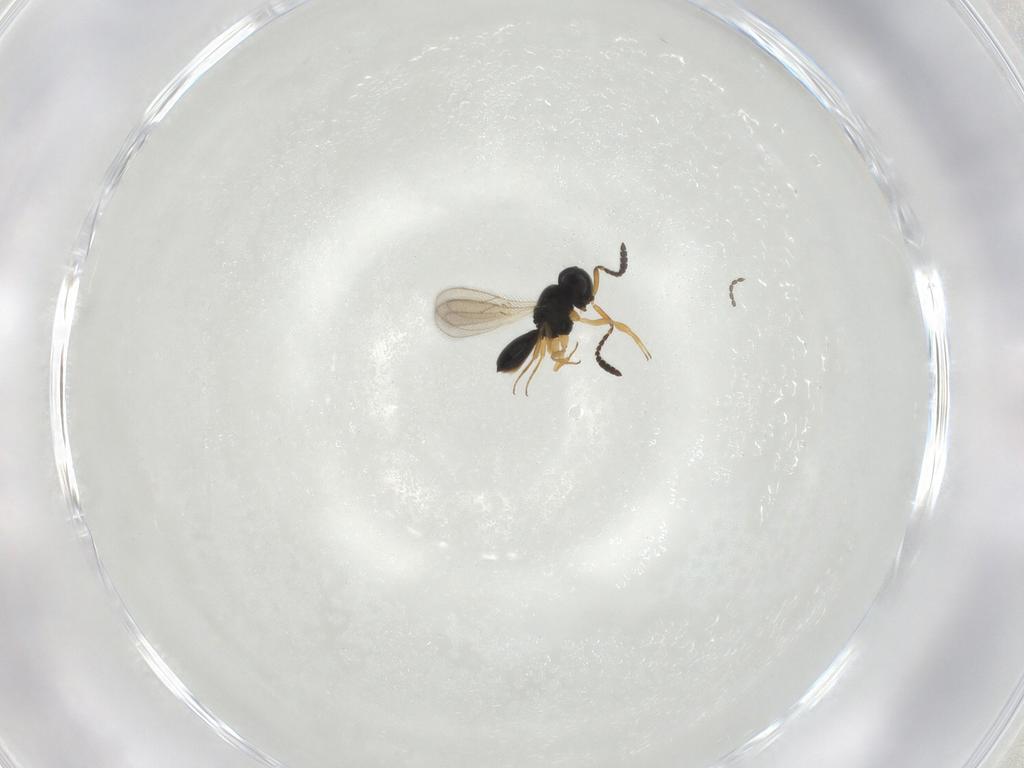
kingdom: Animalia
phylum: Arthropoda
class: Insecta
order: Hymenoptera
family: Scelionidae
